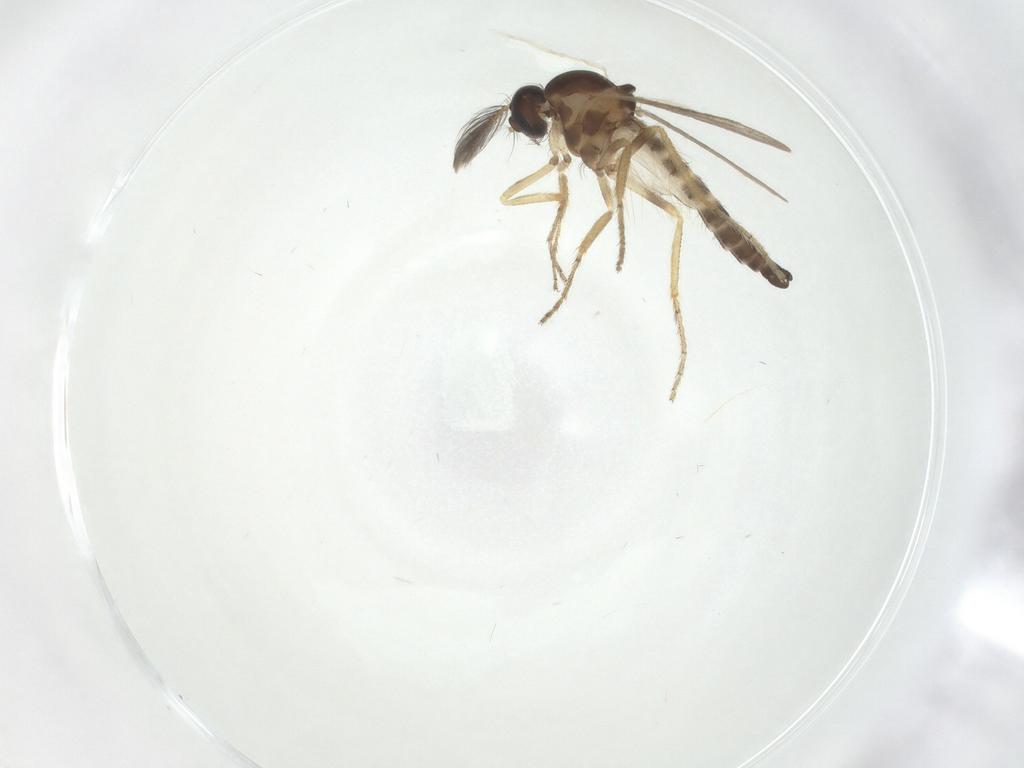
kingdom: Animalia
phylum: Arthropoda
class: Insecta
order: Diptera
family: Ceratopogonidae
